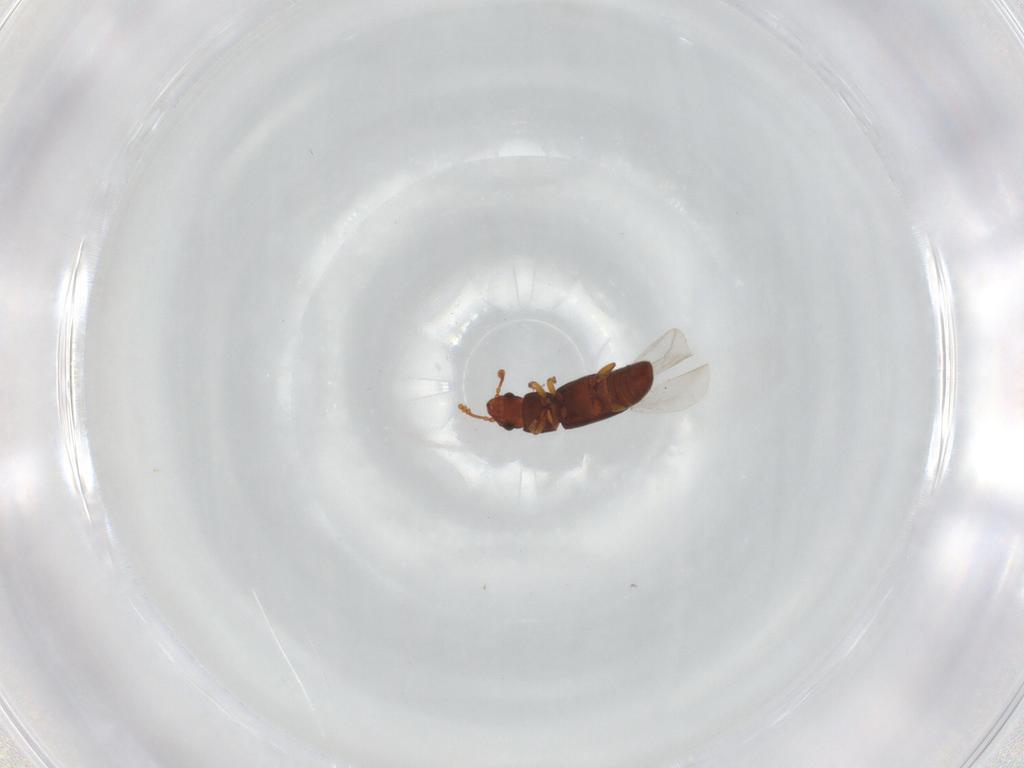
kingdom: Animalia
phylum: Arthropoda
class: Insecta
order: Coleoptera
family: Smicripidae
